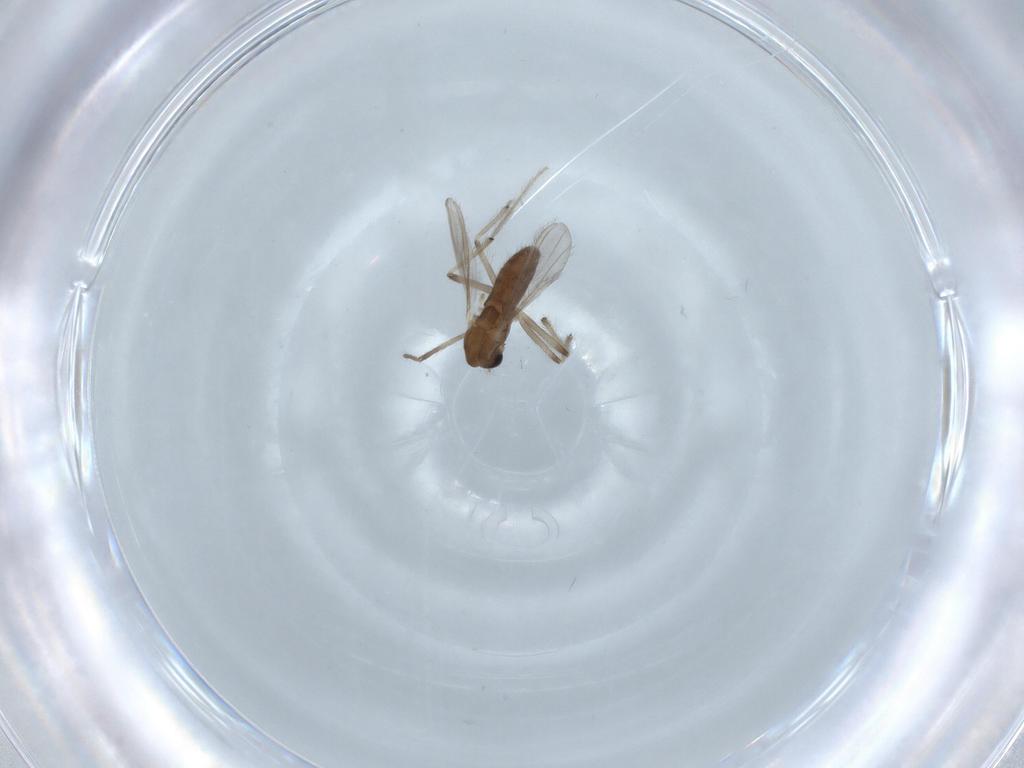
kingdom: Animalia
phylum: Arthropoda
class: Insecta
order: Diptera
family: Chironomidae
